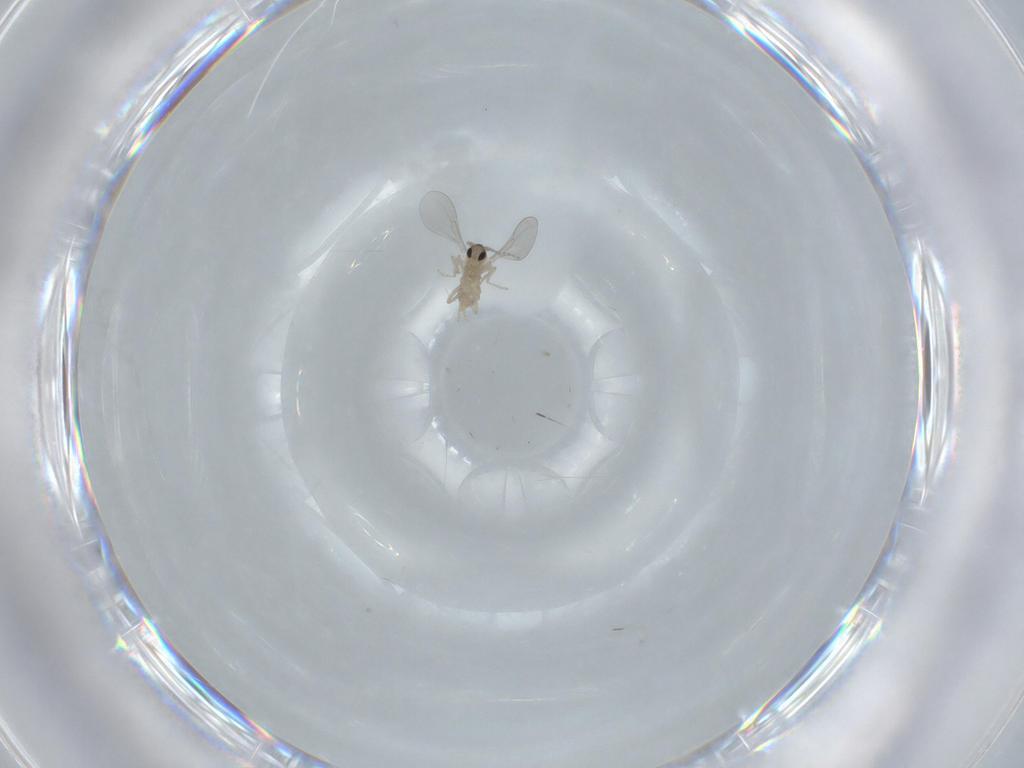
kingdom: Animalia
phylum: Arthropoda
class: Insecta
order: Diptera
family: Cecidomyiidae
